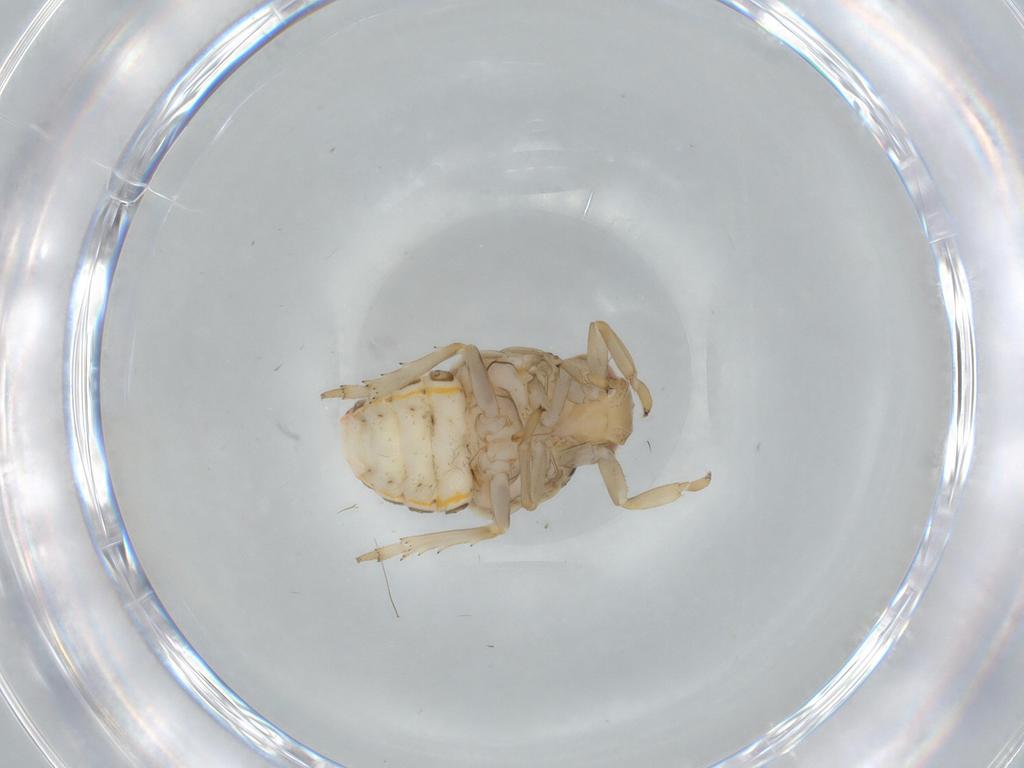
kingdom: Animalia
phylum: Arthropoda
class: Insecta
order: Hemiptera
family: Issidae
